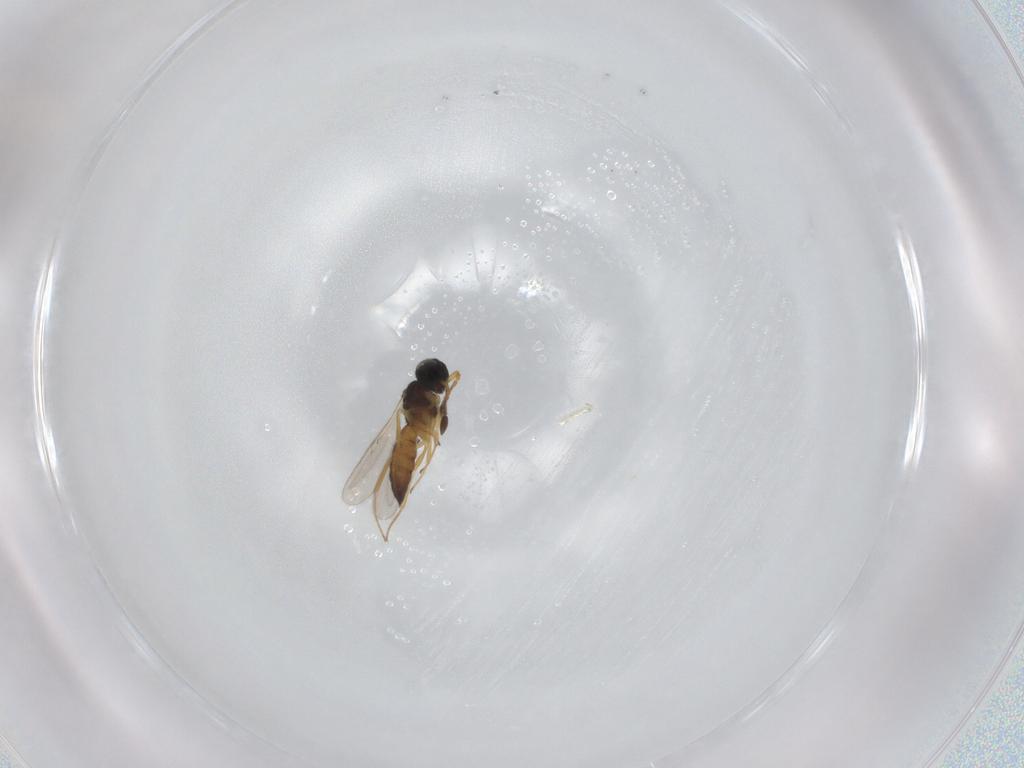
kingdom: Animalia
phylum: Arthropoda
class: Insecta
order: Hymenoptera
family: Scelionidae
